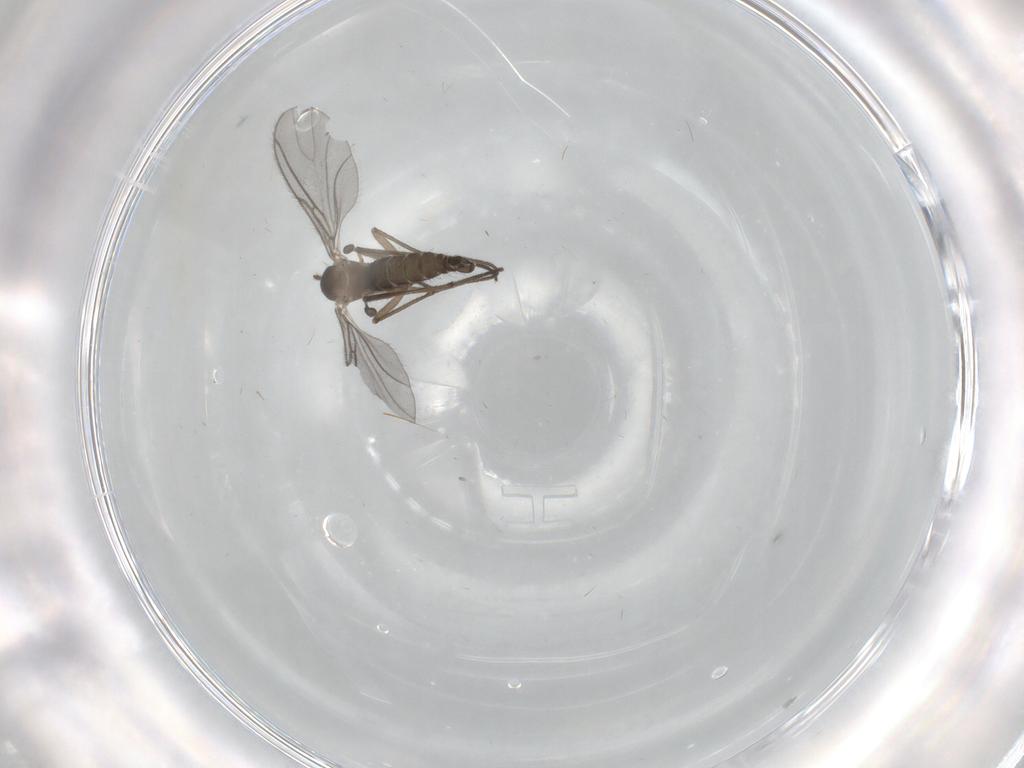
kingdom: Animalia
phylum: Arthropoda
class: Insecta
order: Diptera
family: Sciaridae
